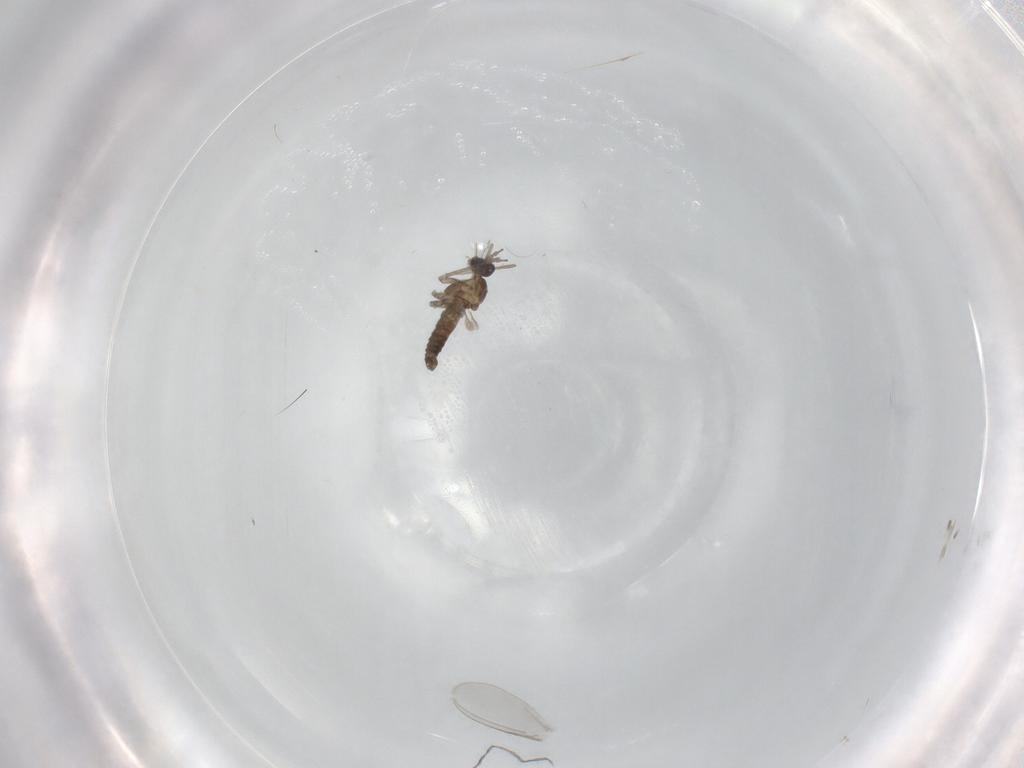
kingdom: Animalia
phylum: Arthropoda
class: Insecta
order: Diptera
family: Cecidomyiidae
